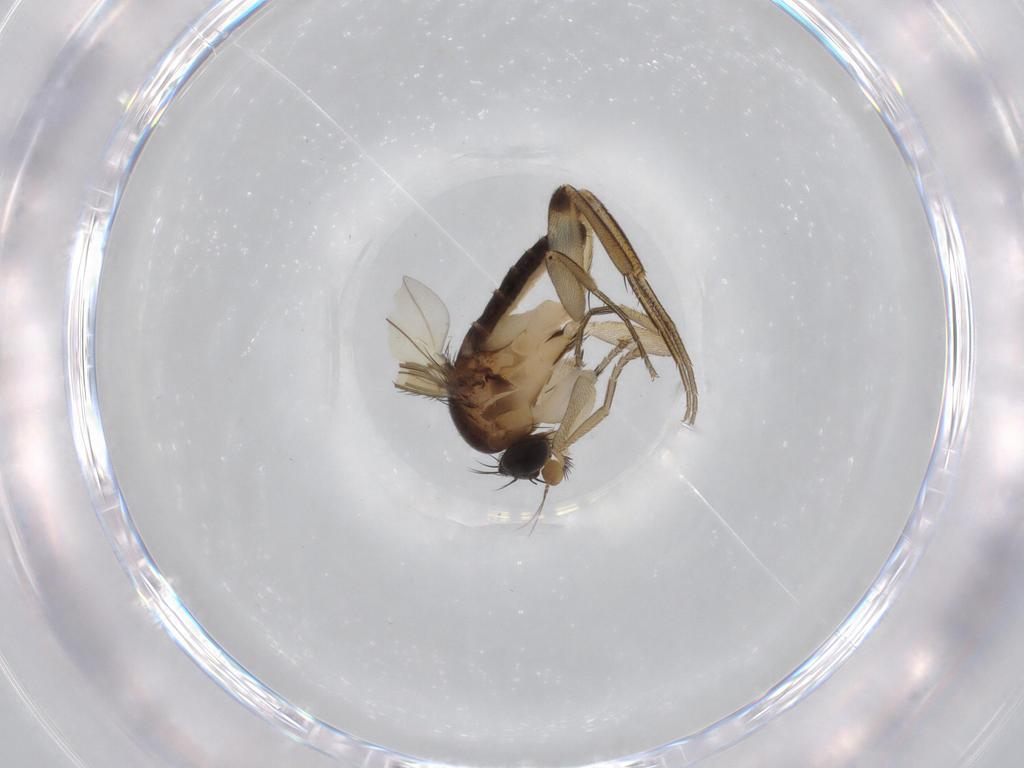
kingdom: Animalia
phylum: Arthropoda
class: Insecta
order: Diptera
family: Phoridae
